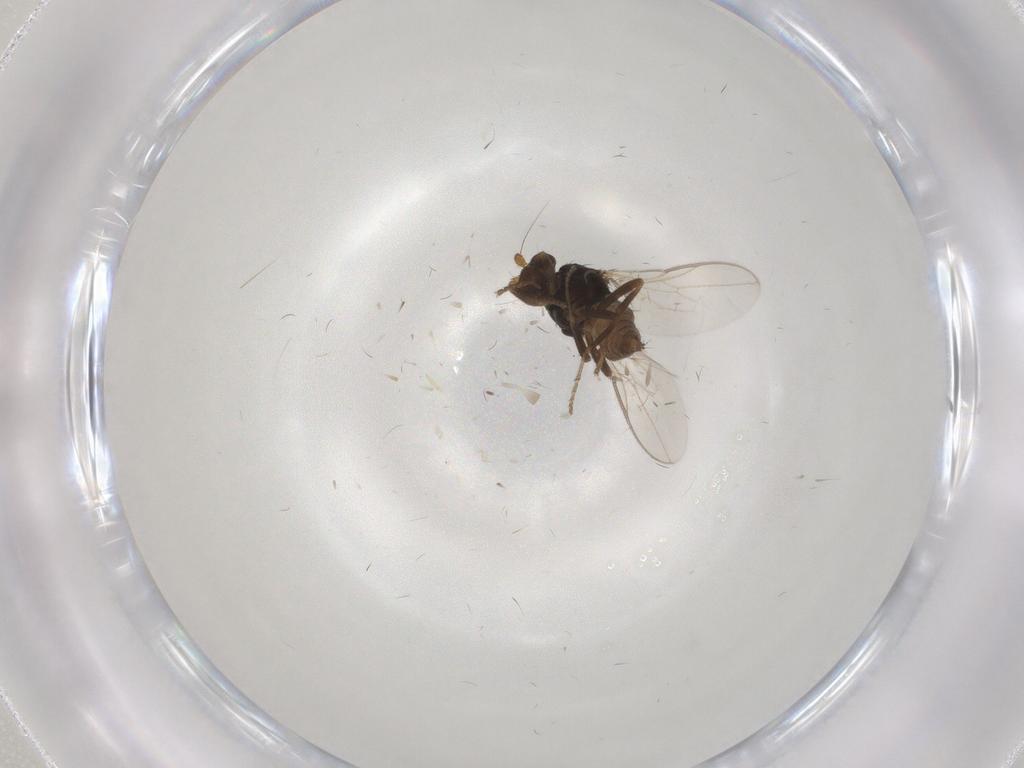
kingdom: Animalia
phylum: Arthropoda
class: Insecta
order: Diptera
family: Sphaeroceridae
